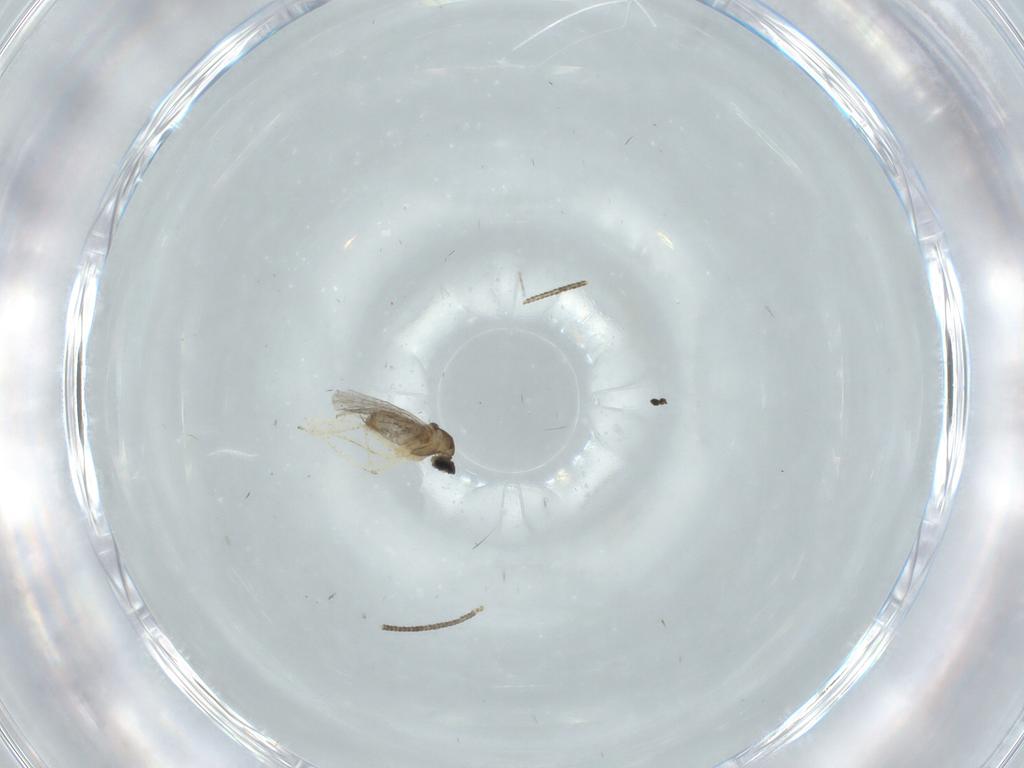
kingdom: Animalia
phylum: Arthropoda
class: Insecta
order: Diptera
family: Cecidomyiidae
